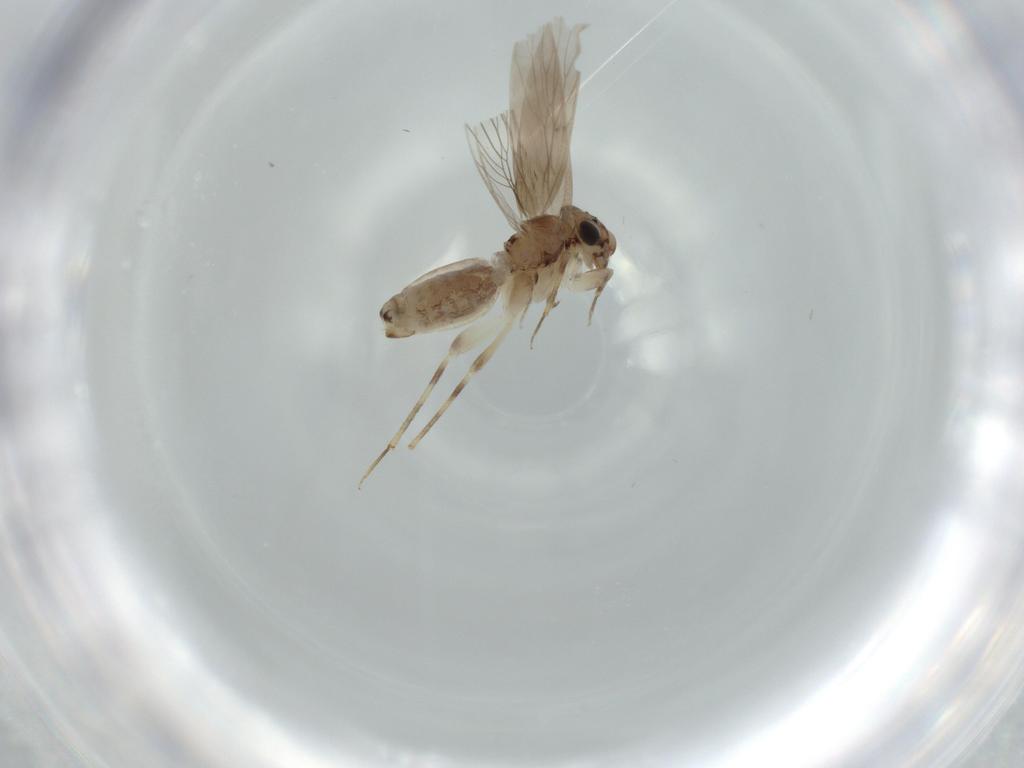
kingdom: Animalia
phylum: Arthropoda
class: Insecta
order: Psocodea
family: Lepidopsocidae
